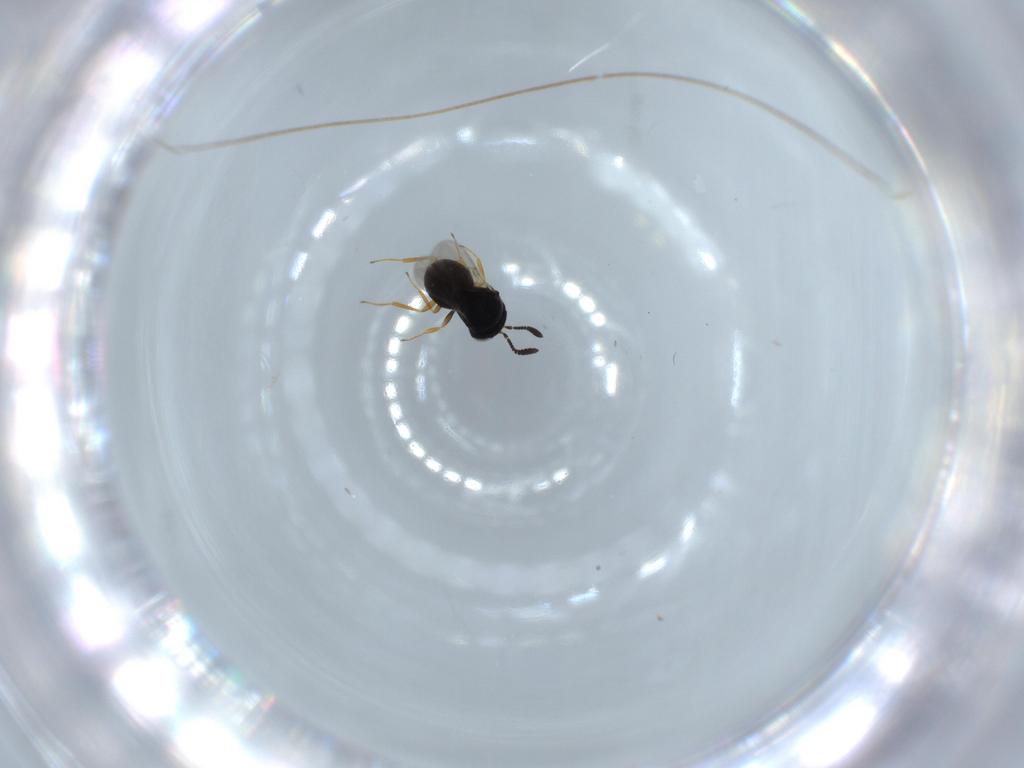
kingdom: Animalia
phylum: Arthropoda
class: Insecta
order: Hymenoptera
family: Scelionidae
